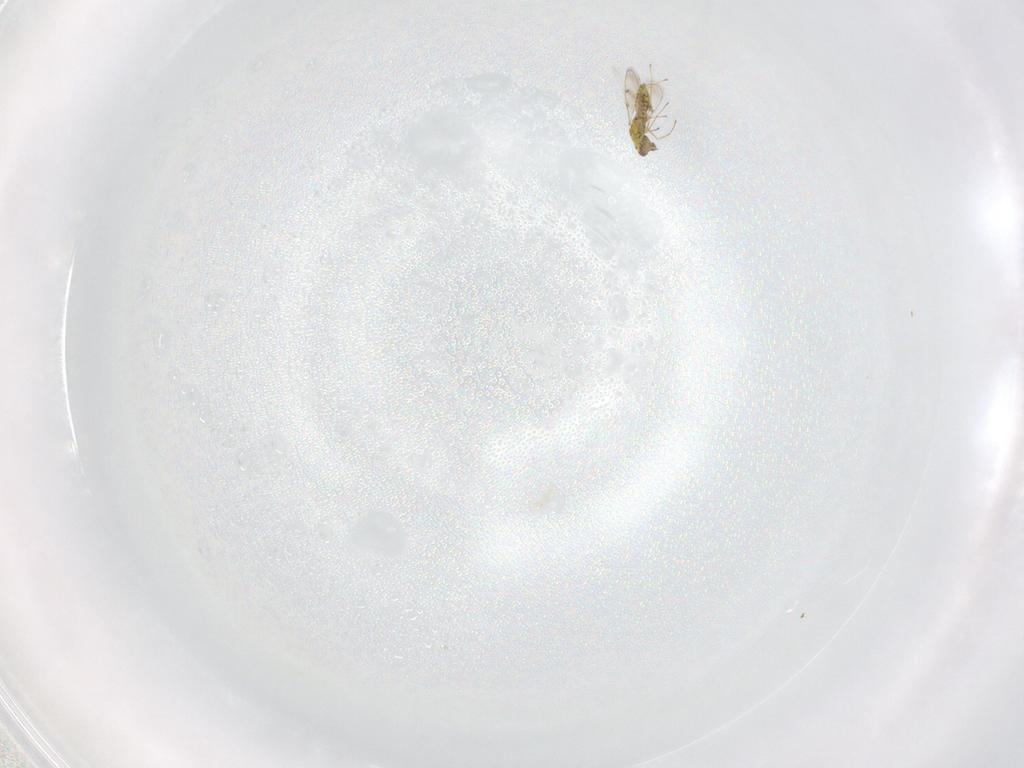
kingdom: Animalia
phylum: Arthropoda
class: Insecta
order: Hymenoptera
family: Eulophidae
